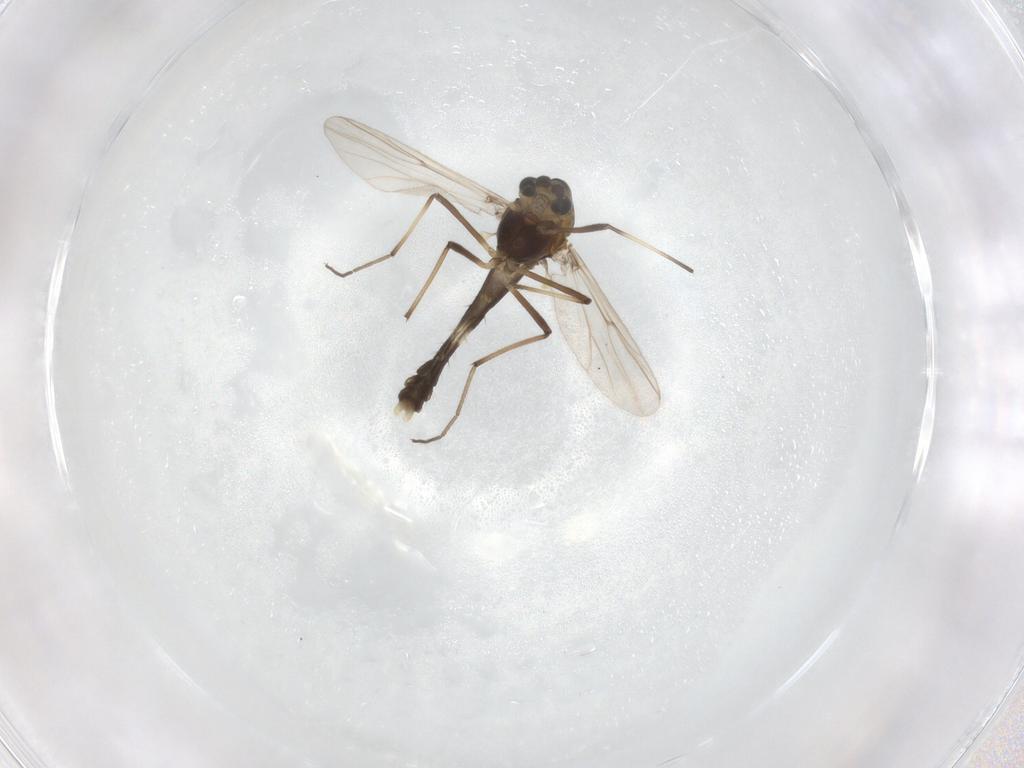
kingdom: Animalia
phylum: Arthropoda
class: Insecta
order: Diptera
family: Chironomidae
